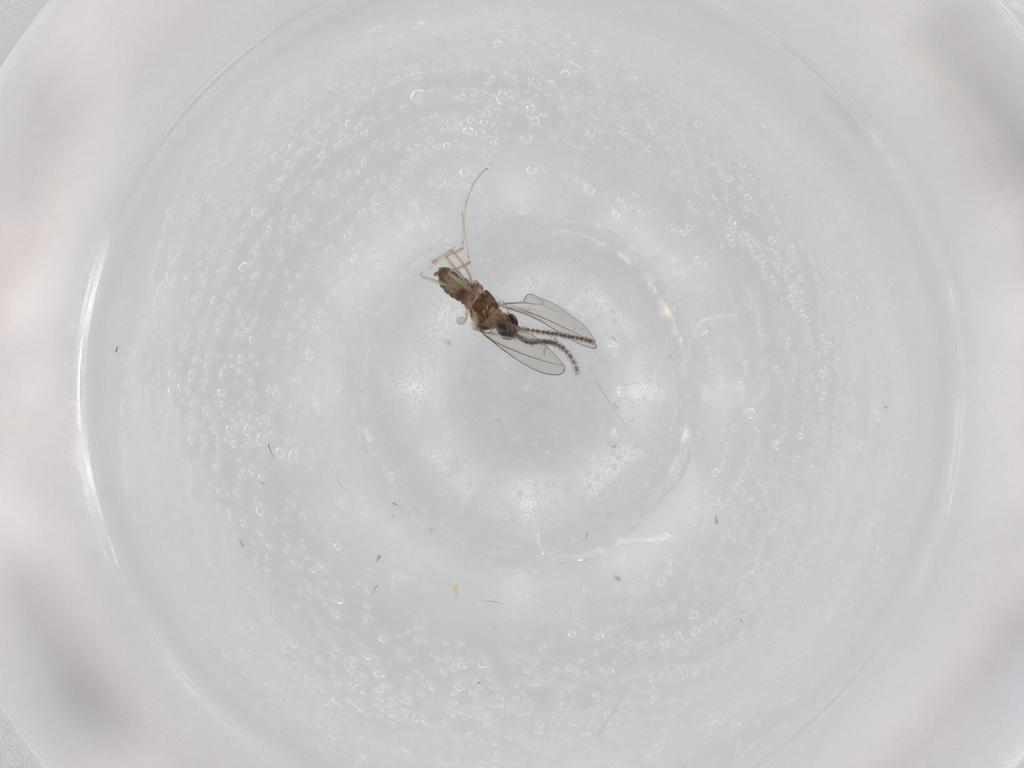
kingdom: Animalia
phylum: Arthropoda
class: Insecta
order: Diptera
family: Cecidomyiidae
